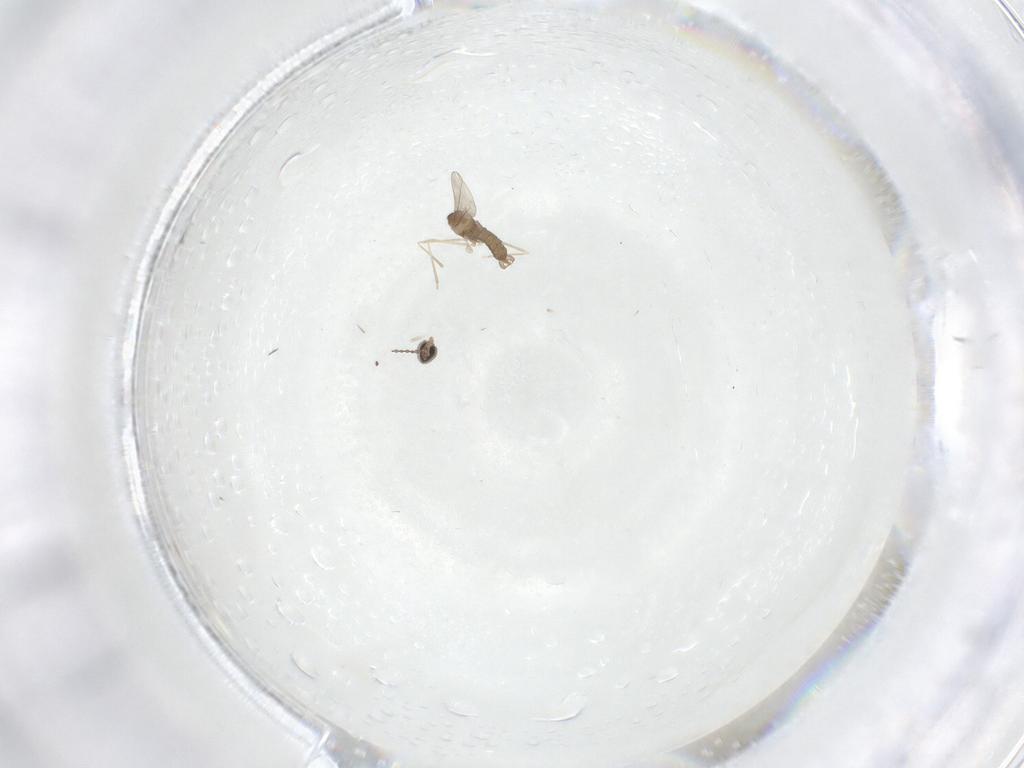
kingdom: Animalia
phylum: Arthropoda
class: Insecta
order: Diptera
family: Cecidomyiidae
